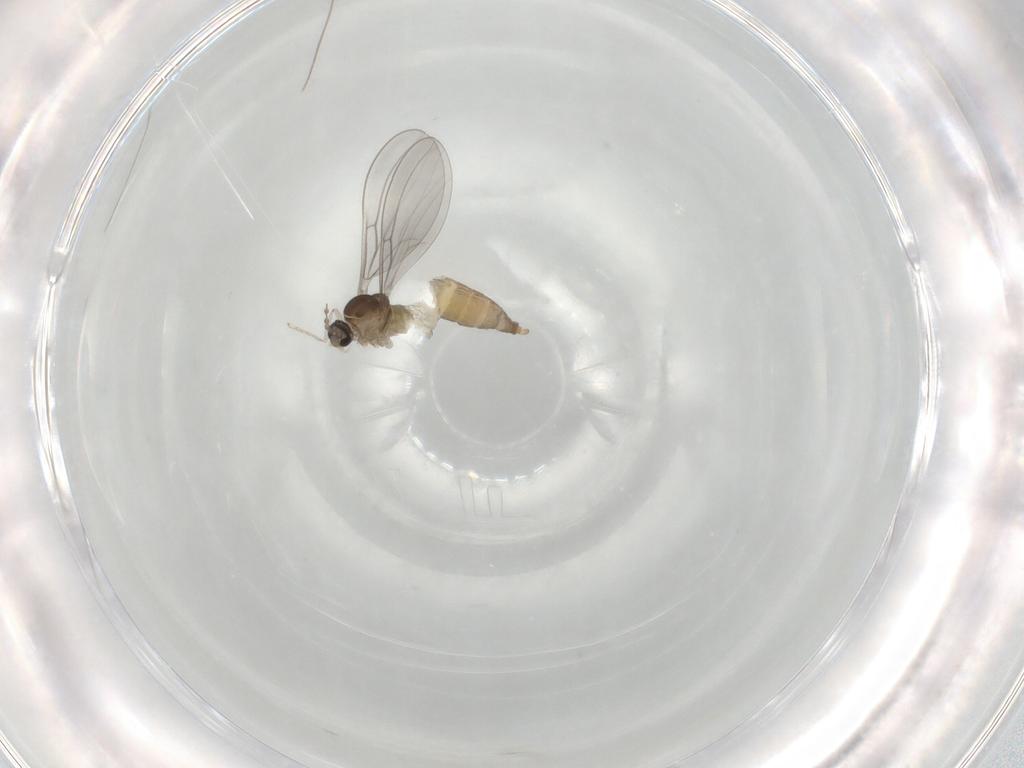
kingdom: Animalia
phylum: Arthropoda
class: Insecta
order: Diptera
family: Cecidomyiidae
